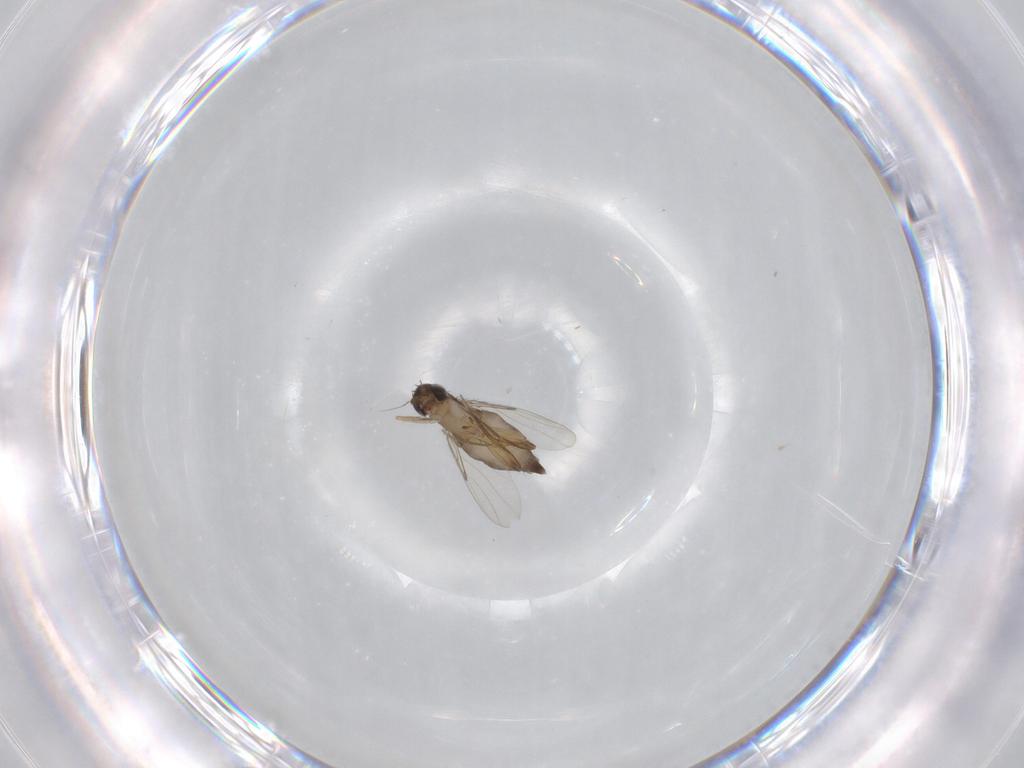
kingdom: Animalia
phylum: Arthropoda
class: Insecta
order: Diptera
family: Phoridae
